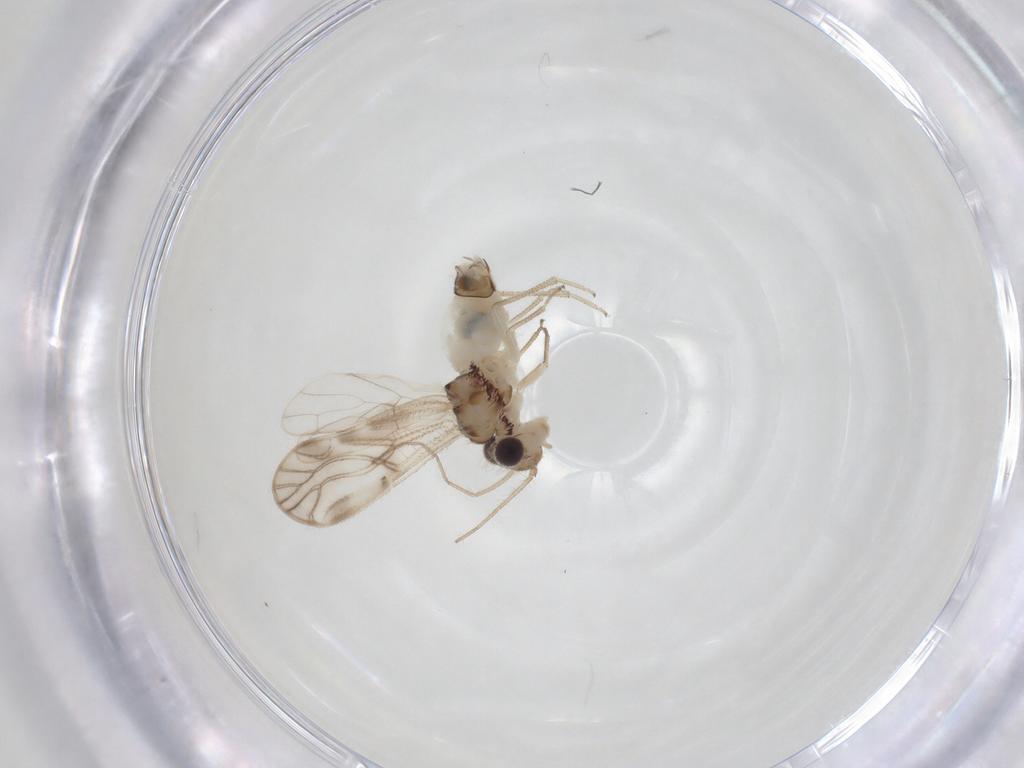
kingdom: Animalia
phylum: Arthropoda
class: Insecta
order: Psocodea
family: Caeciliusidae
